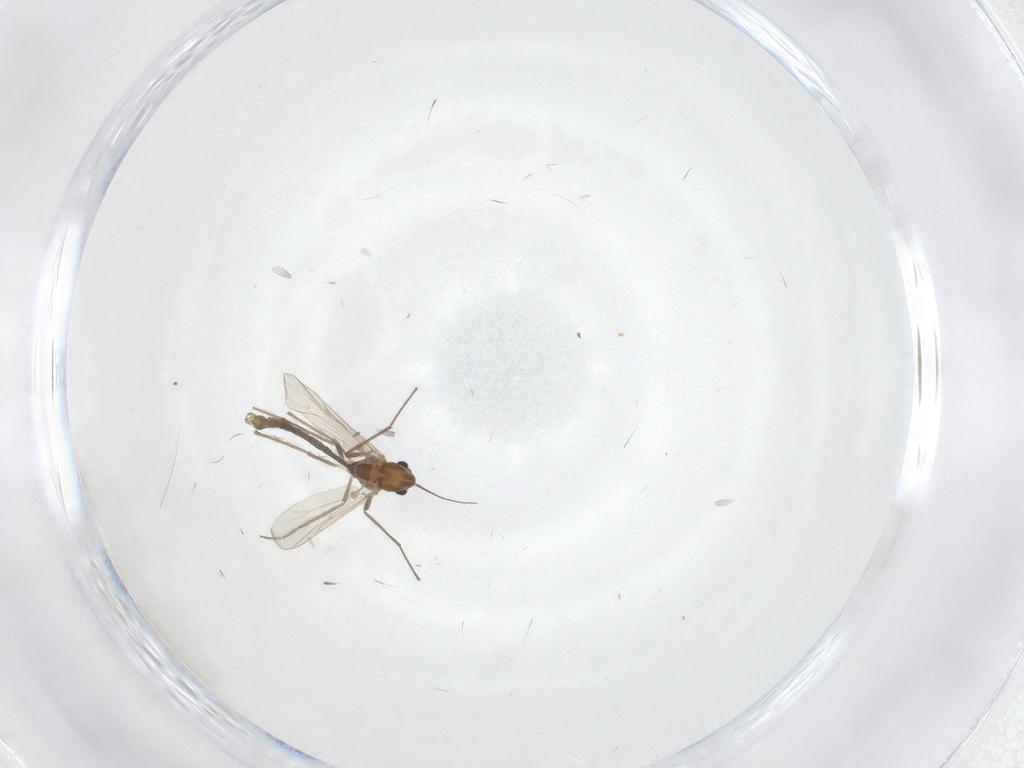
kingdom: Animalia
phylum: Arthropoda
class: Insecta
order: Diptera
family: Chironomidae
